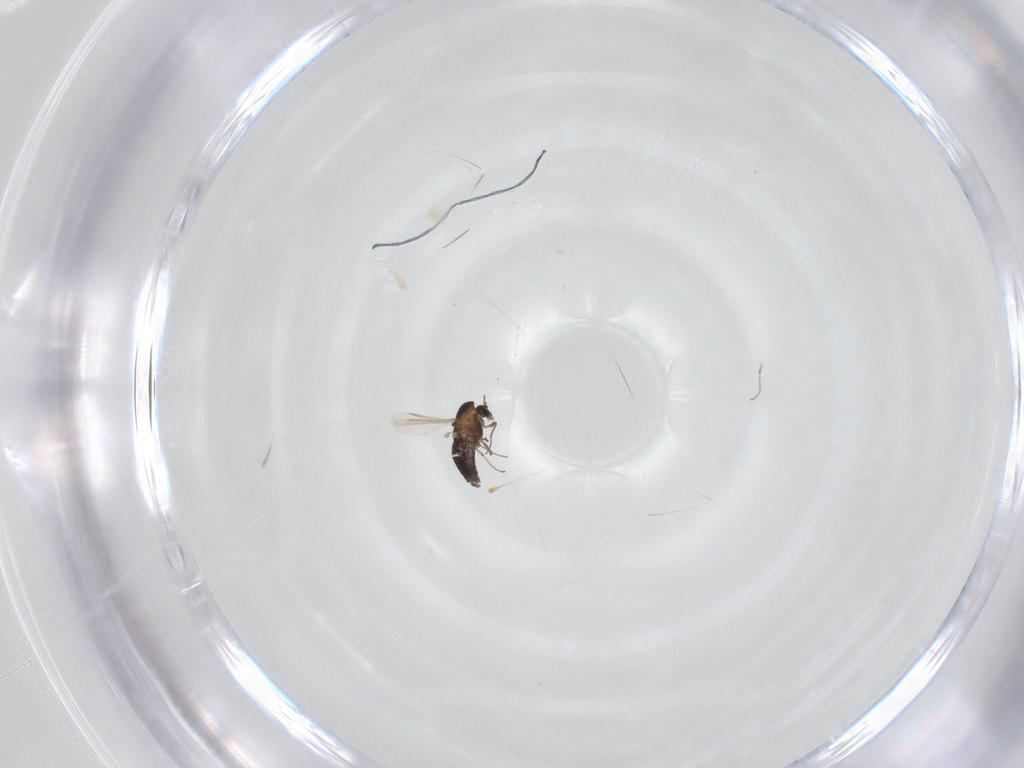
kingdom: Animalia
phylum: Arthropoda
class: Insecta
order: Diptera
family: Chironomidae
